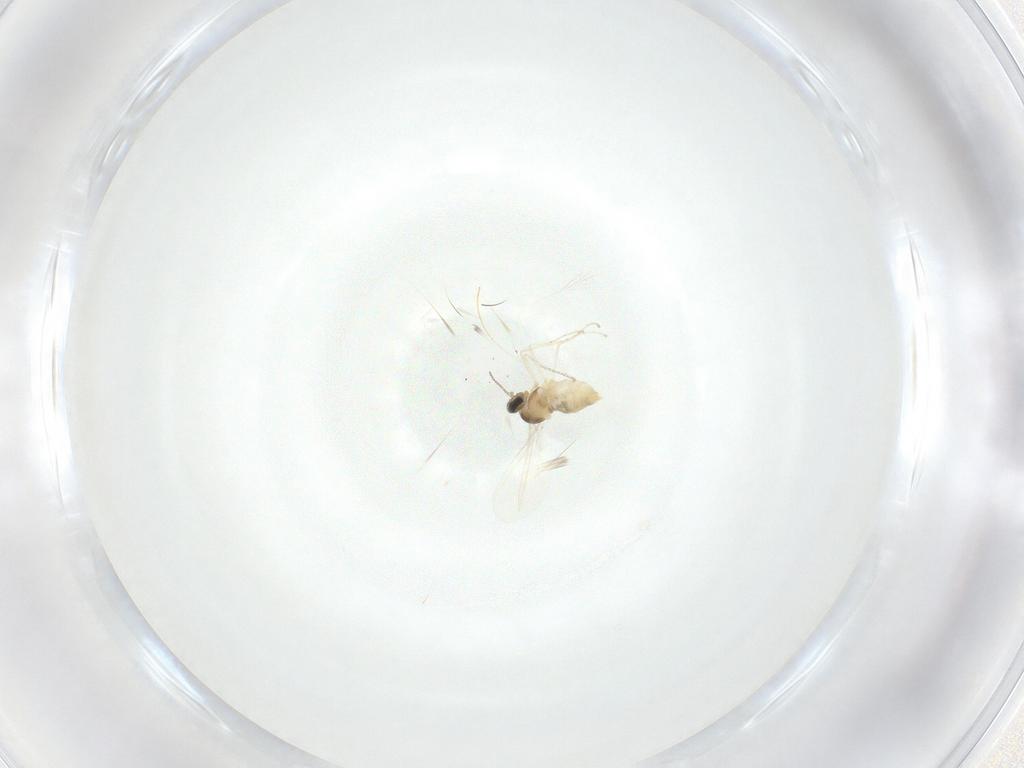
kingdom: Animalia
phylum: Arthropoda
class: Insecta
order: Diptera
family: Cecidomyiidae
